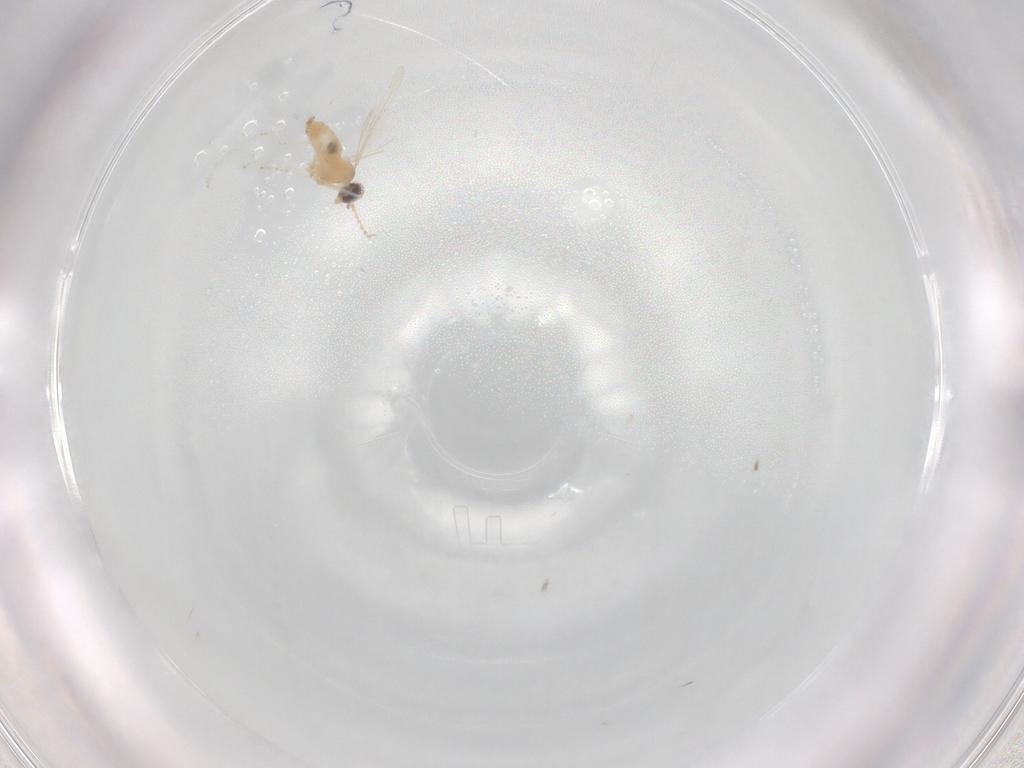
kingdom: Animalia
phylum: Arthropoda
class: Insecta
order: Diptera
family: Cecidomyiidae
